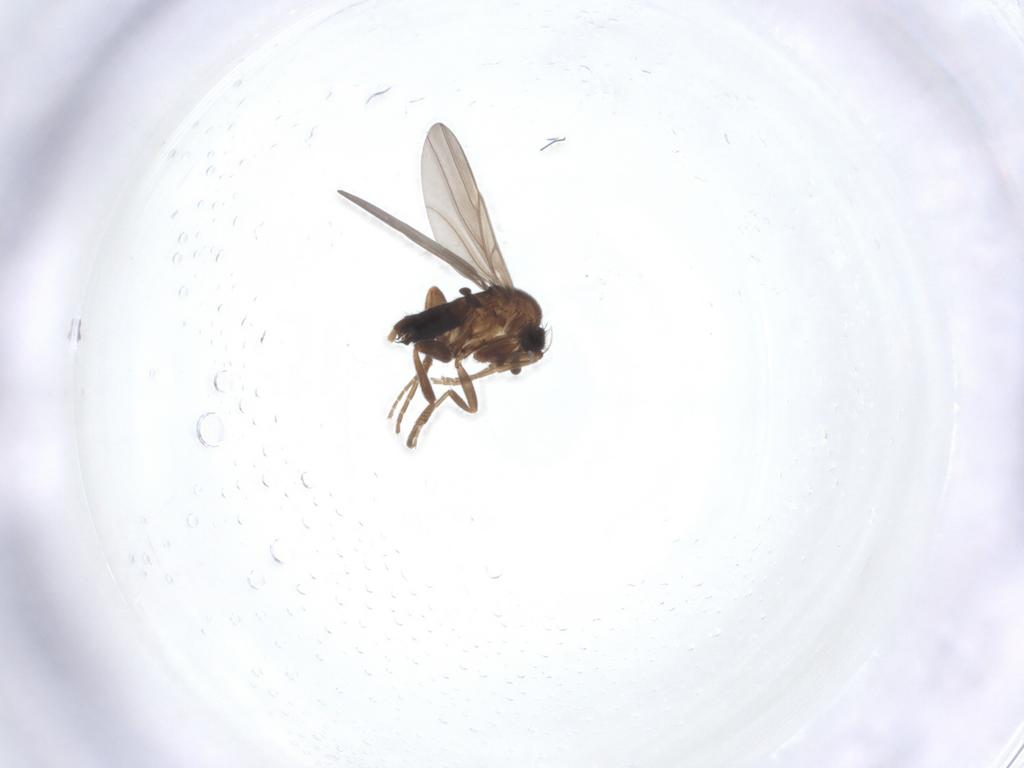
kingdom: Animalia
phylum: Arthropoda
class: Insecta
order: Diptera
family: Phoridae
